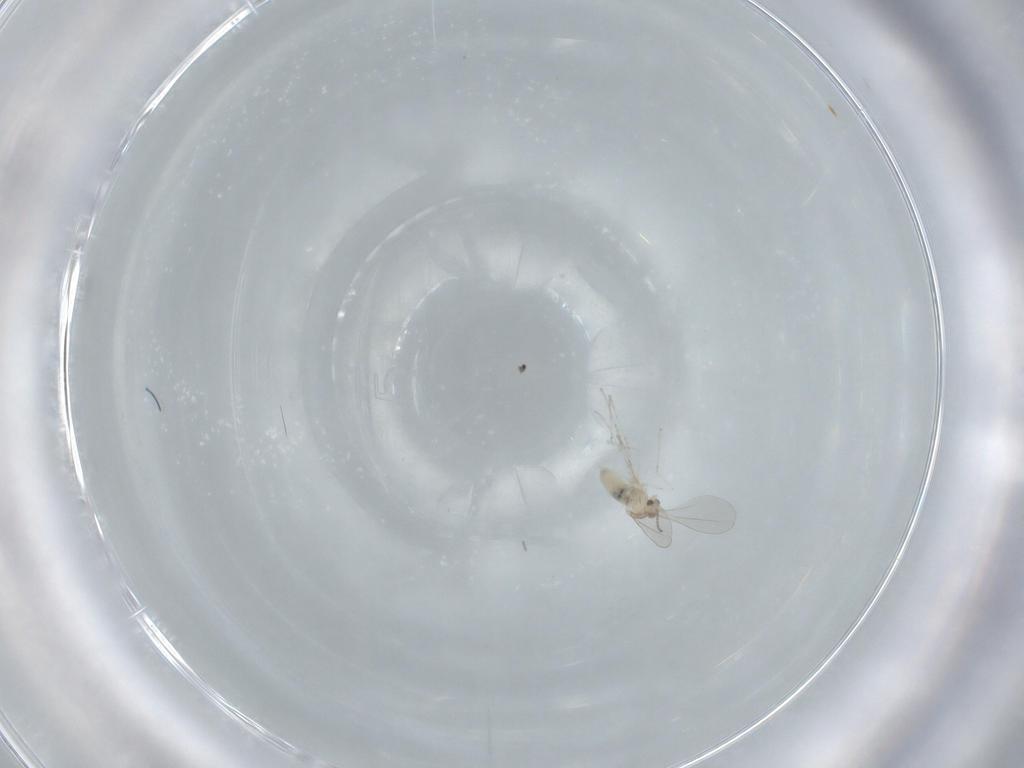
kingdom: Animalia
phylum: Arthropoda
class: Insecta
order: Diptera
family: Cecidomyiidae
